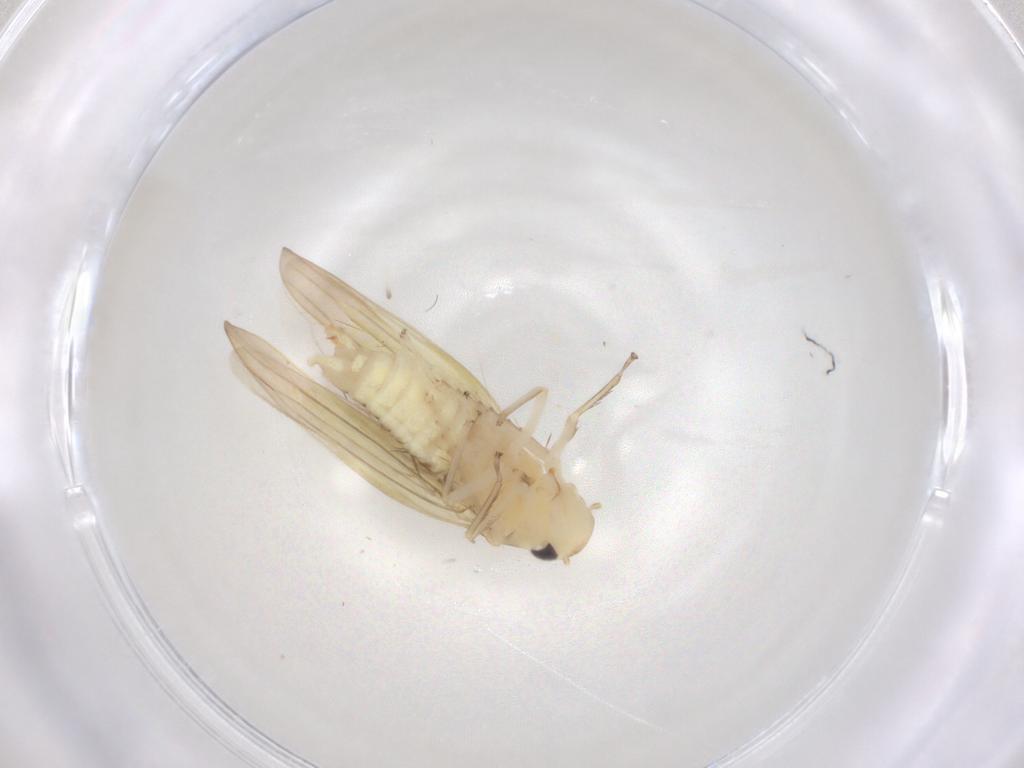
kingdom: Animalia
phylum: Arthropoda
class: Insecta
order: Hemiptera
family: Cicadellidae
